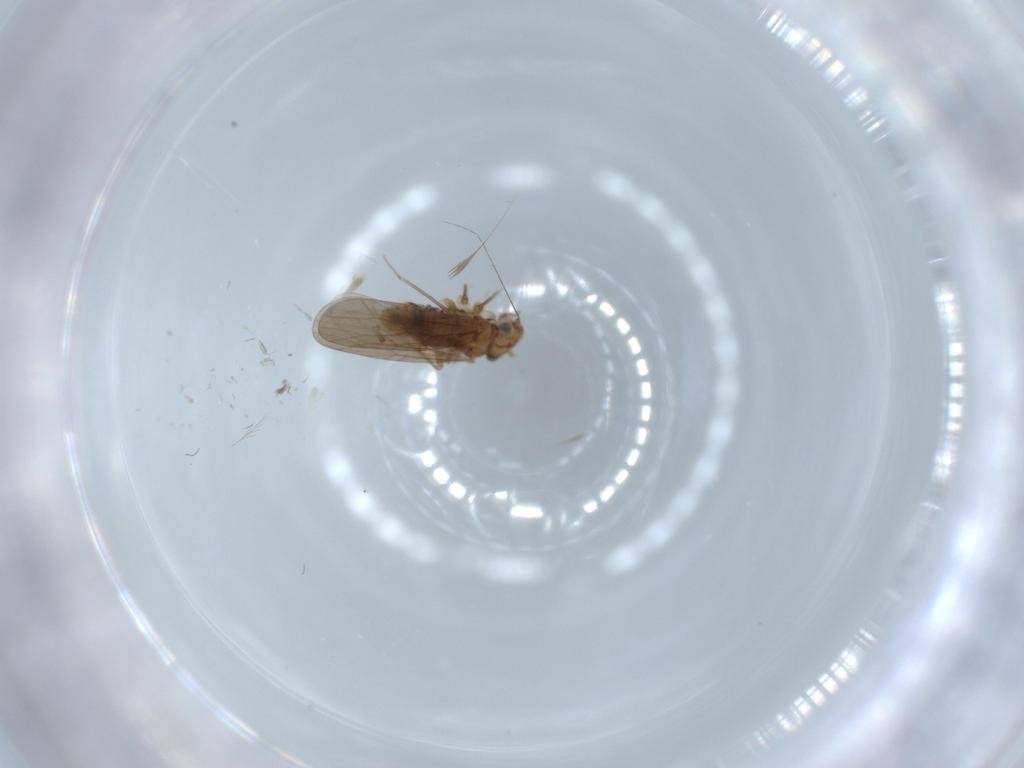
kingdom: Animalia
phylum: Arthropoda
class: Insecta
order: Psocodea
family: Lepidopsocidae
